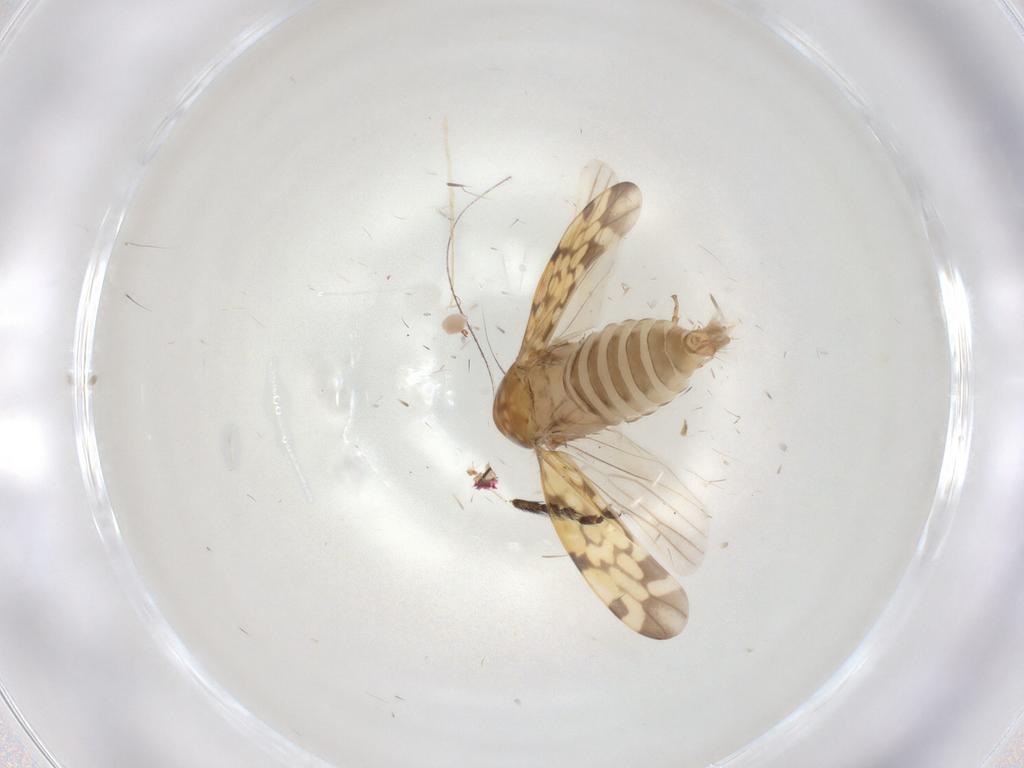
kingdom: Animalia
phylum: Arthropoda
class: Insecta
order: Hemiptera
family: Cicadellidae
